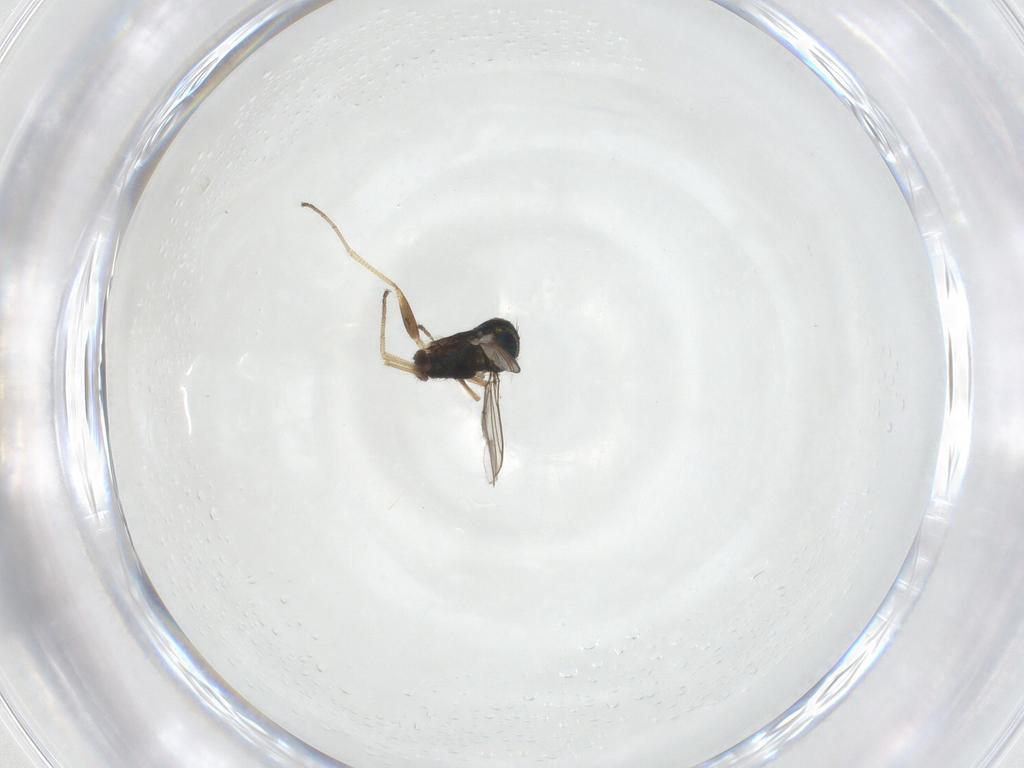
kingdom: Animalia
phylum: Arthropoda
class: Insecta
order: Diptera
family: Dolichopodidae
